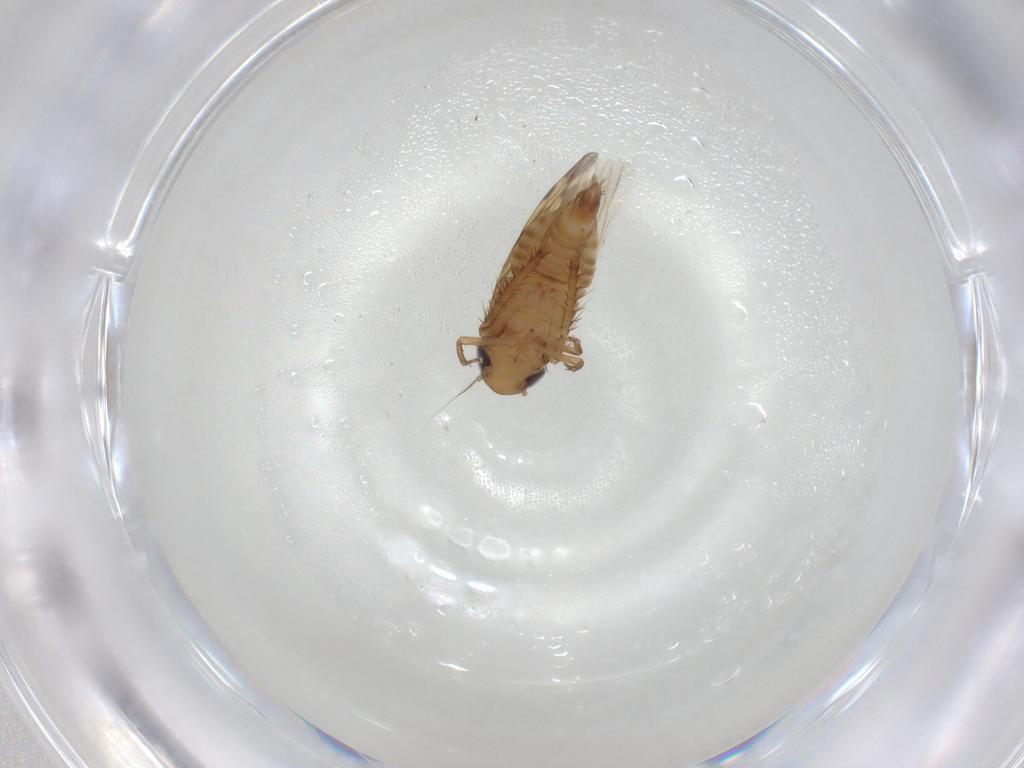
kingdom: Animalia
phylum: Arthropoda
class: Insecta
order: Hemiptera
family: Cicadellidae
